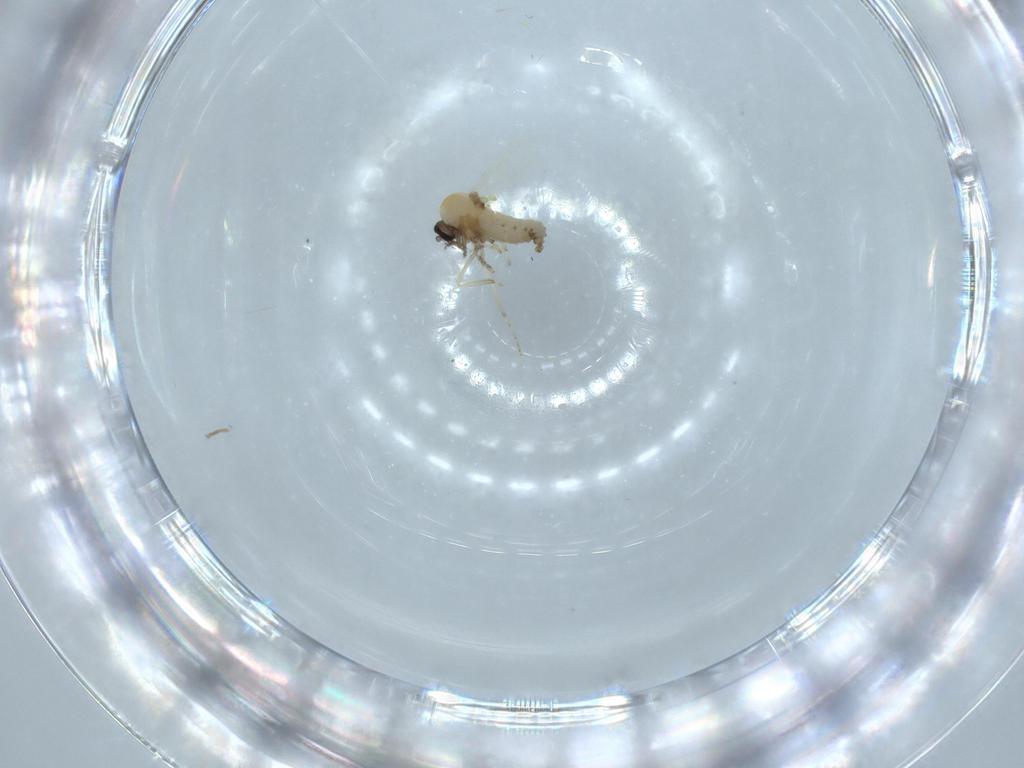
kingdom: Animalia
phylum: Arthropoda
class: Insecta
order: Diptera
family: Ceratopogonidae
